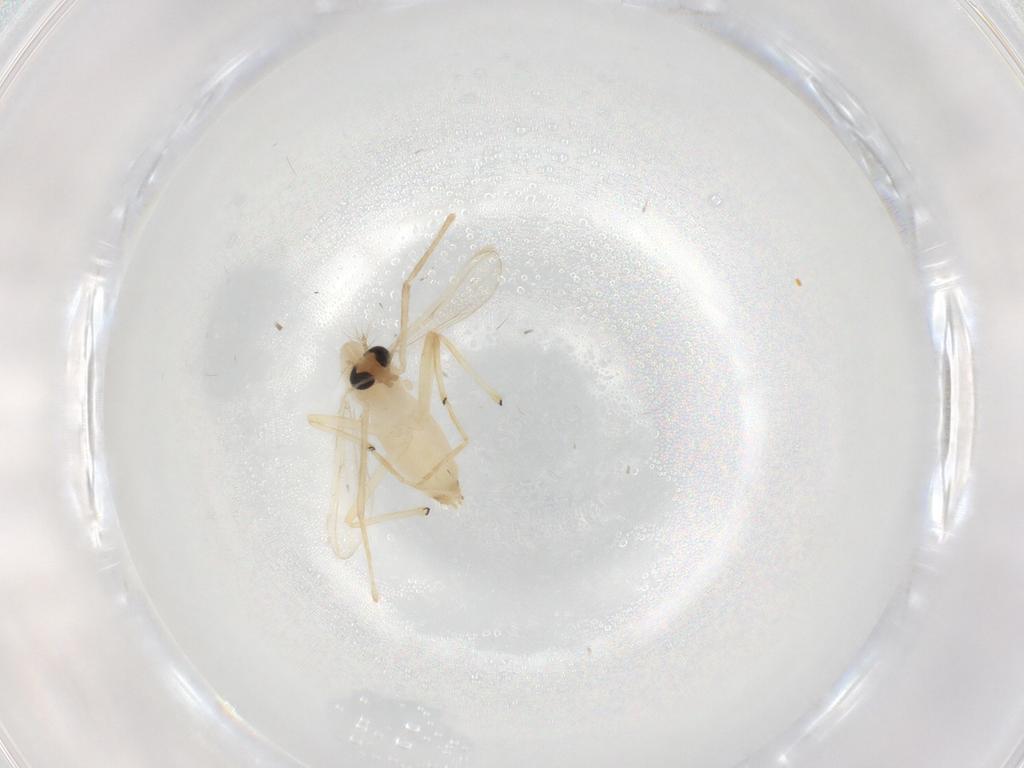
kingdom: Animalia
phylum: Arthropoda
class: Insecta
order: Diptera
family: Chironomidae
